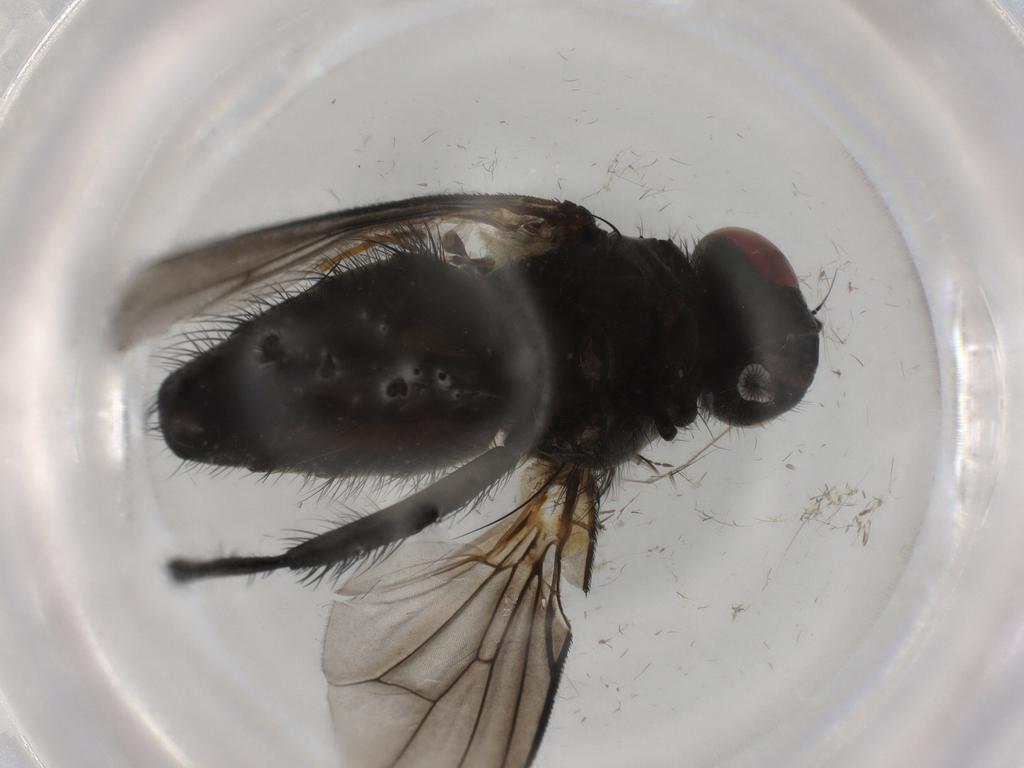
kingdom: Animalia
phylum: Arthropoda
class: Insecta
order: Diptera
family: Muscidae
